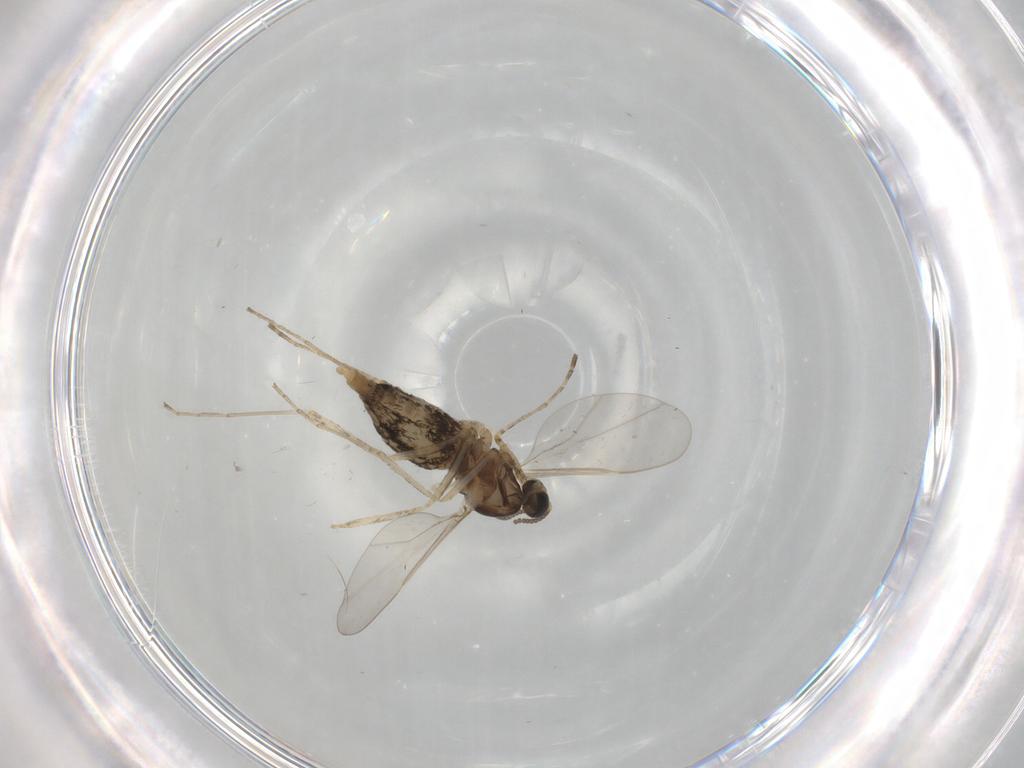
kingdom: Animalia
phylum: Arthropoda
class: Insecta
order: Diptera
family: Cecidomyiidae
